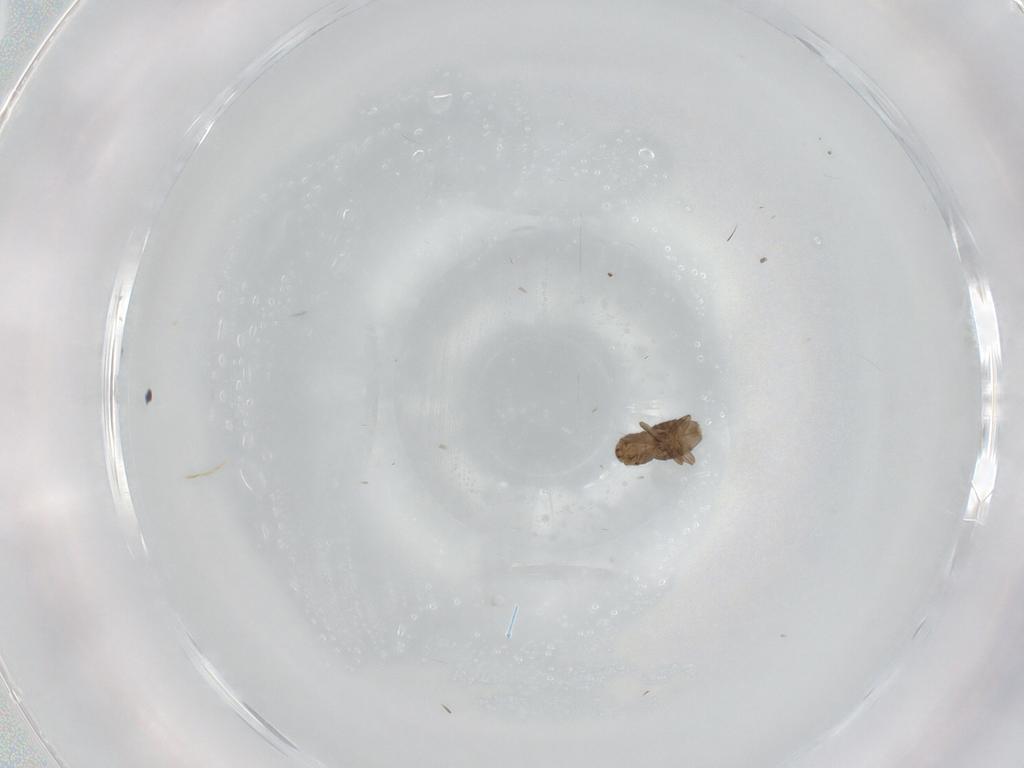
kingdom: Animalia
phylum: Arthropoda
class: Insecta
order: Diptera
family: Chironomidae
